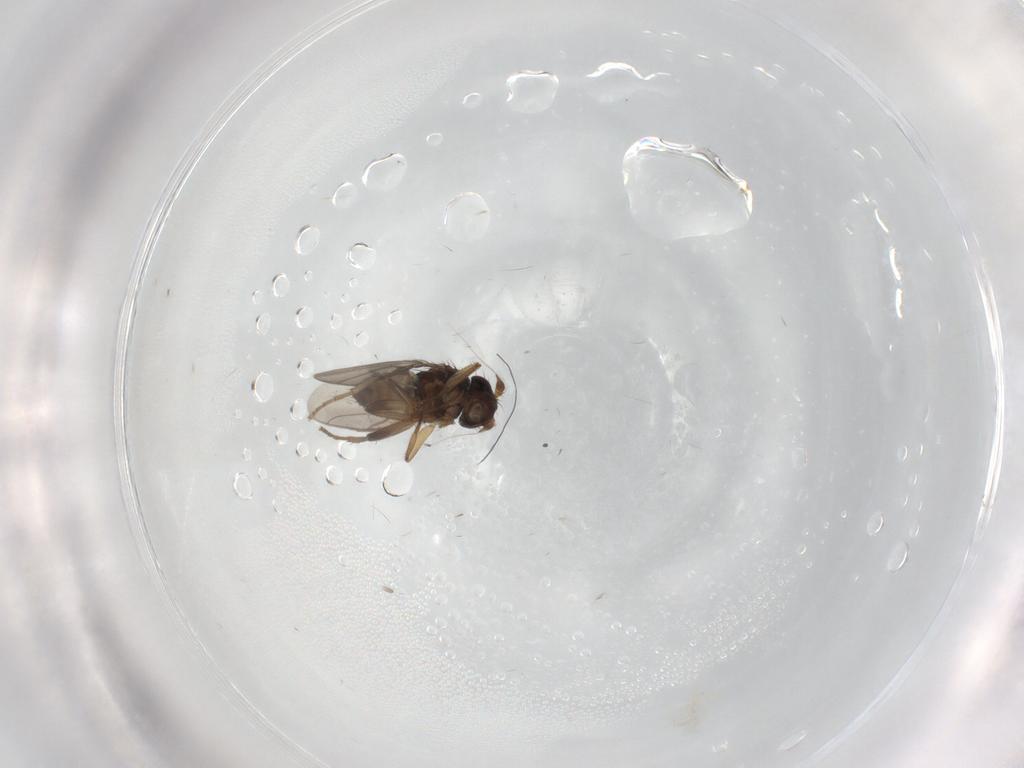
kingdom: Animalia
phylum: Arthropoda
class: Insecta
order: Diptera
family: Sphaeroceridae
